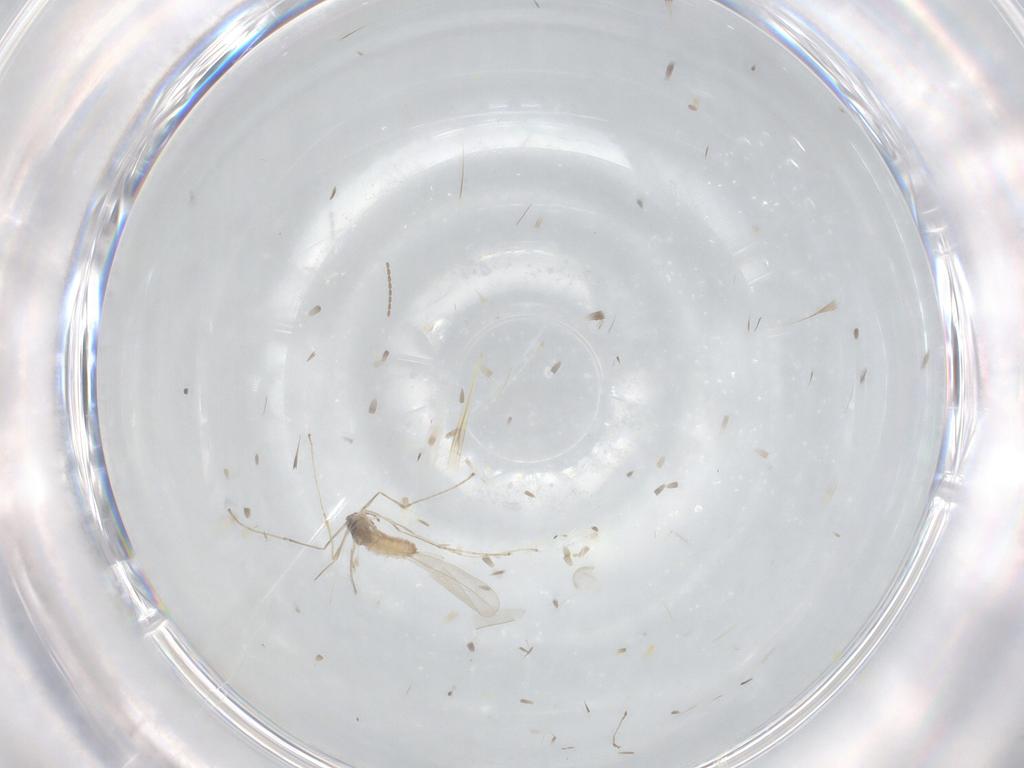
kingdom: Animalia
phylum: Arthropoda
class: Insecta
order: Diptera
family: Cecidomyiidae
